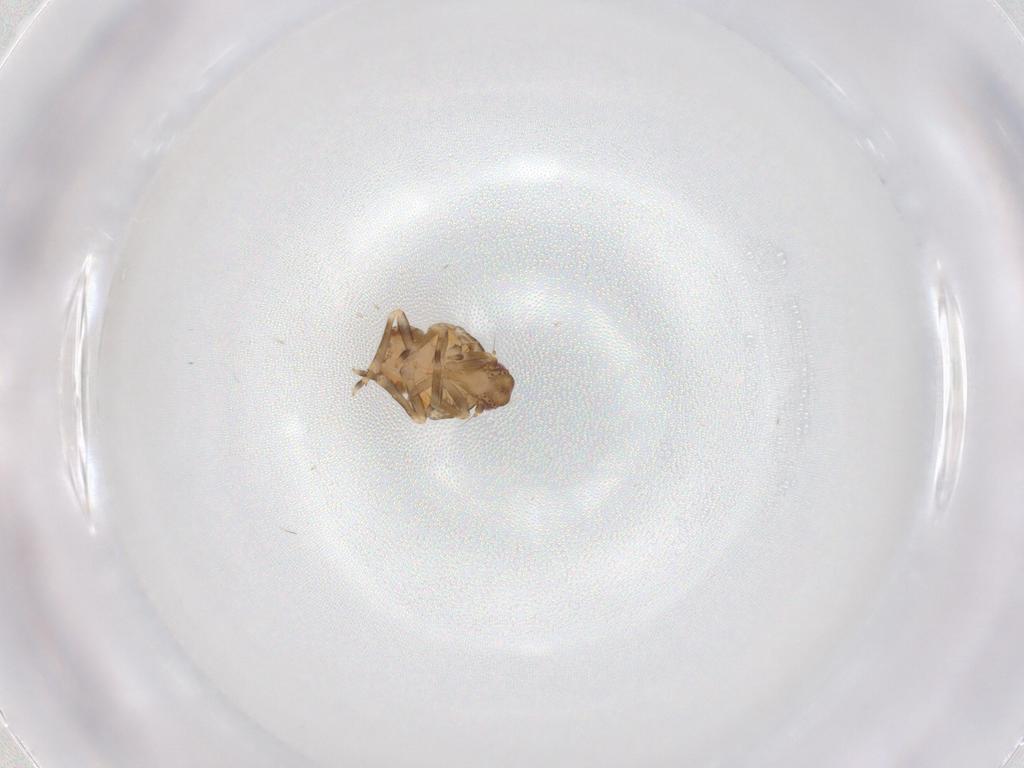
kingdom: Animalia
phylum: Arthropoda
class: Insecta
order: Hemiptera
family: Flatidae
